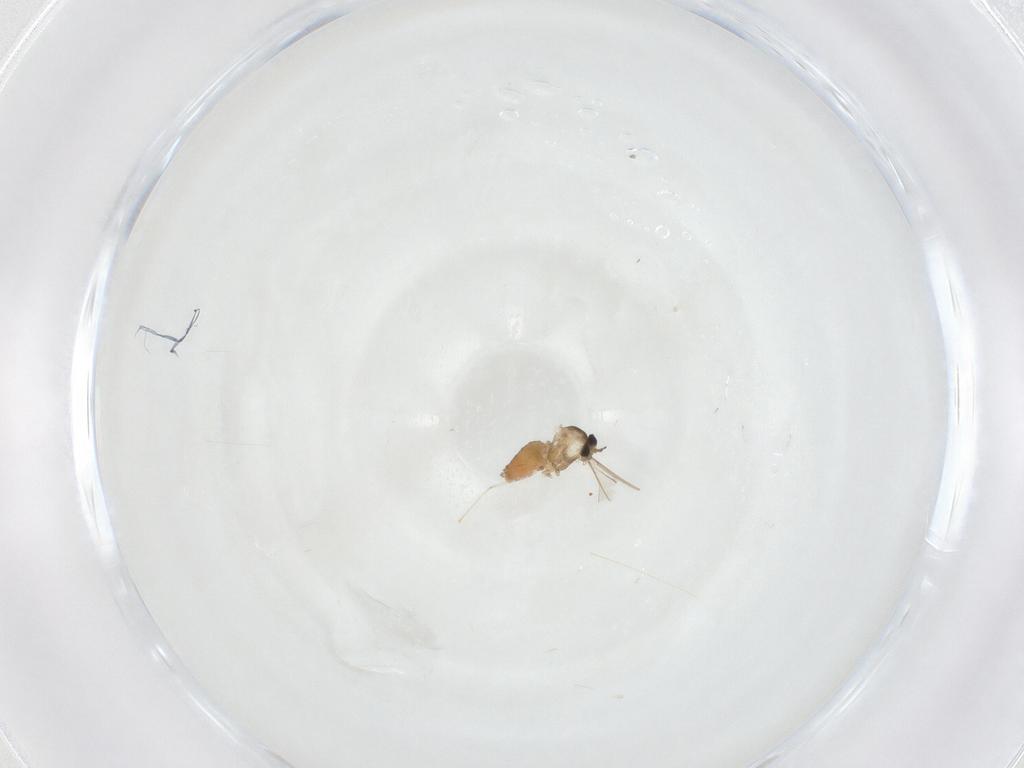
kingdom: Animalia
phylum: Arthropoda
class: Insecta
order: Diptera
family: Cecidomyiidae
